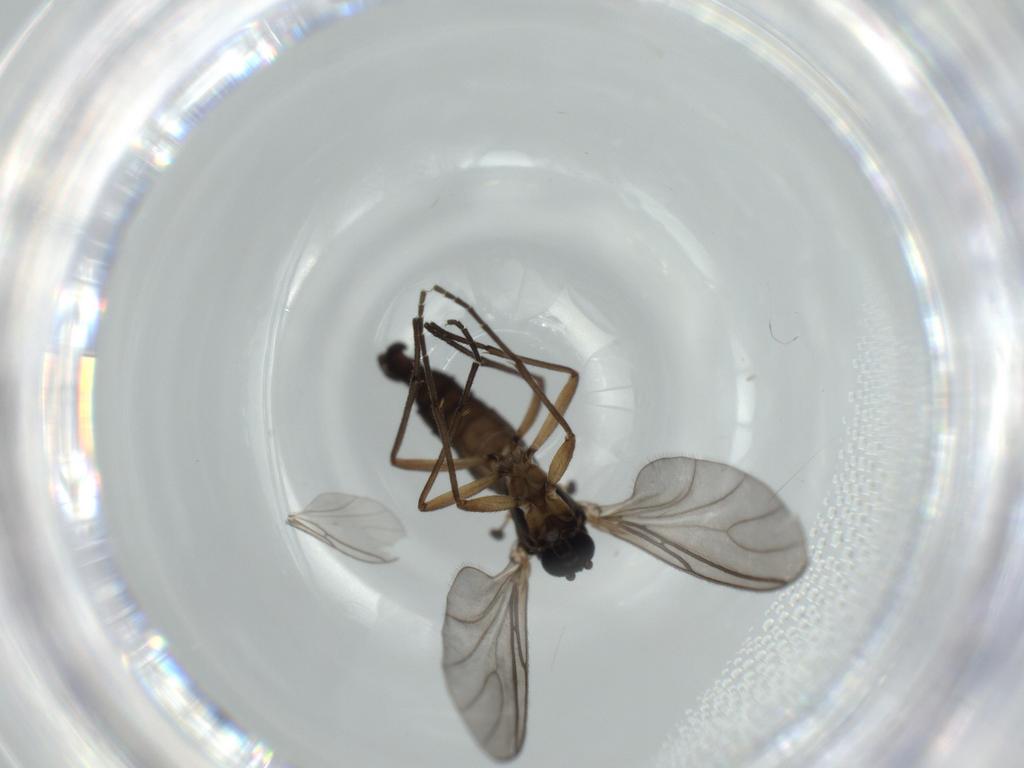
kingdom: Animalia
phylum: Arthropoda
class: Insecta
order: Diptera
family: Sciaridae
